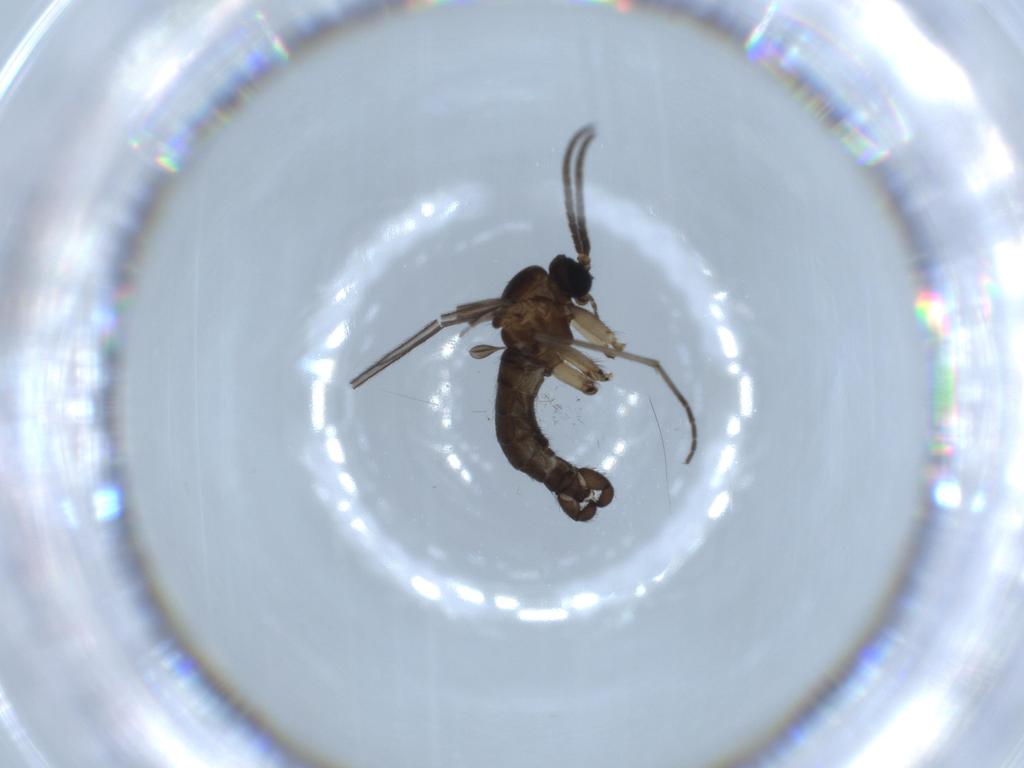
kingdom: Animalia
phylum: Arthropoda
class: Insecta
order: Diptera
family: Sciaridae
